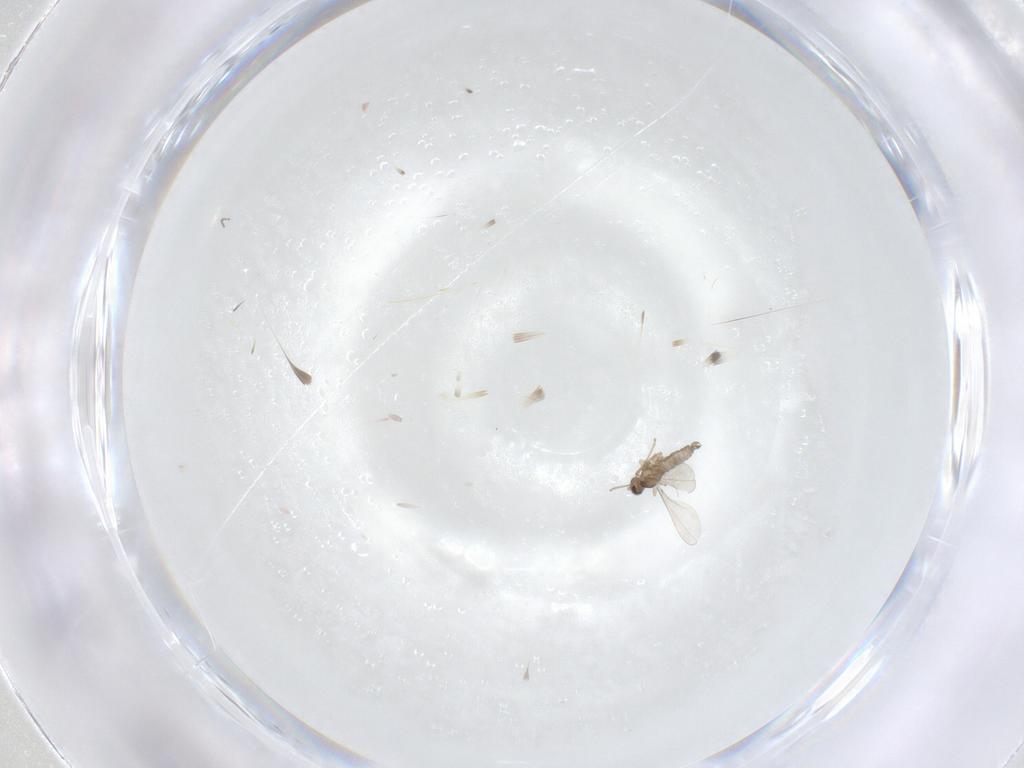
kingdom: Animalia
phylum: Arthropoda
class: Insecta
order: Diptera
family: Cecidomyiidae
